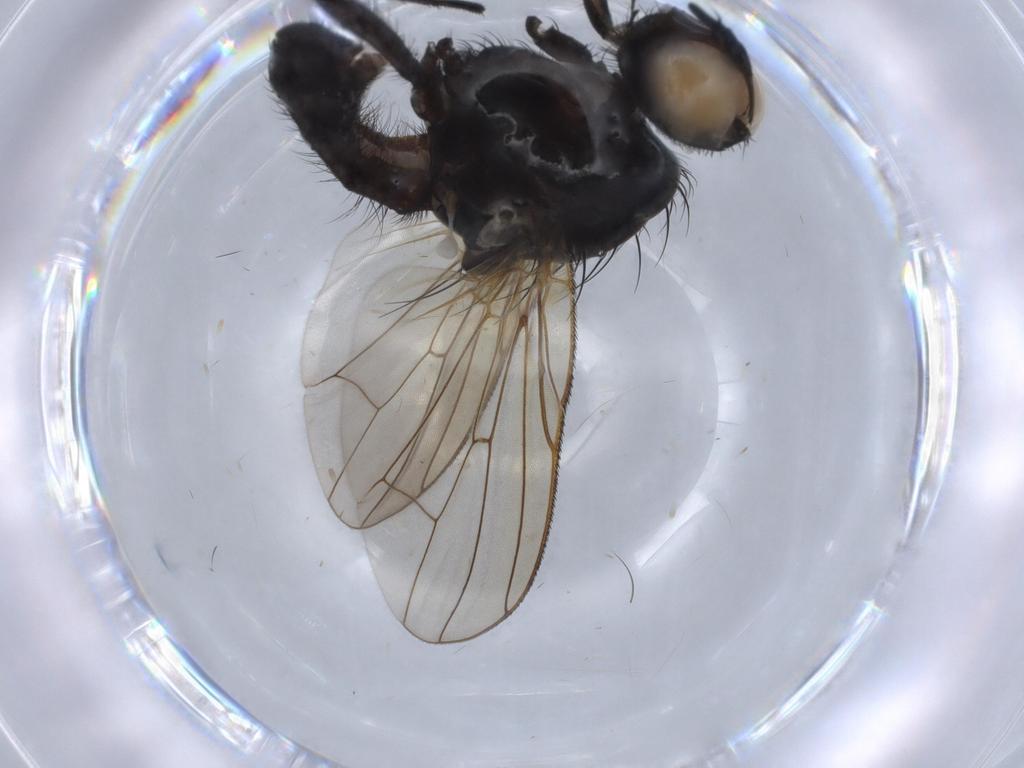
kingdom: Animalia
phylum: Arthropoda
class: Insecta
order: Diptera
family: Anthomyiidae
